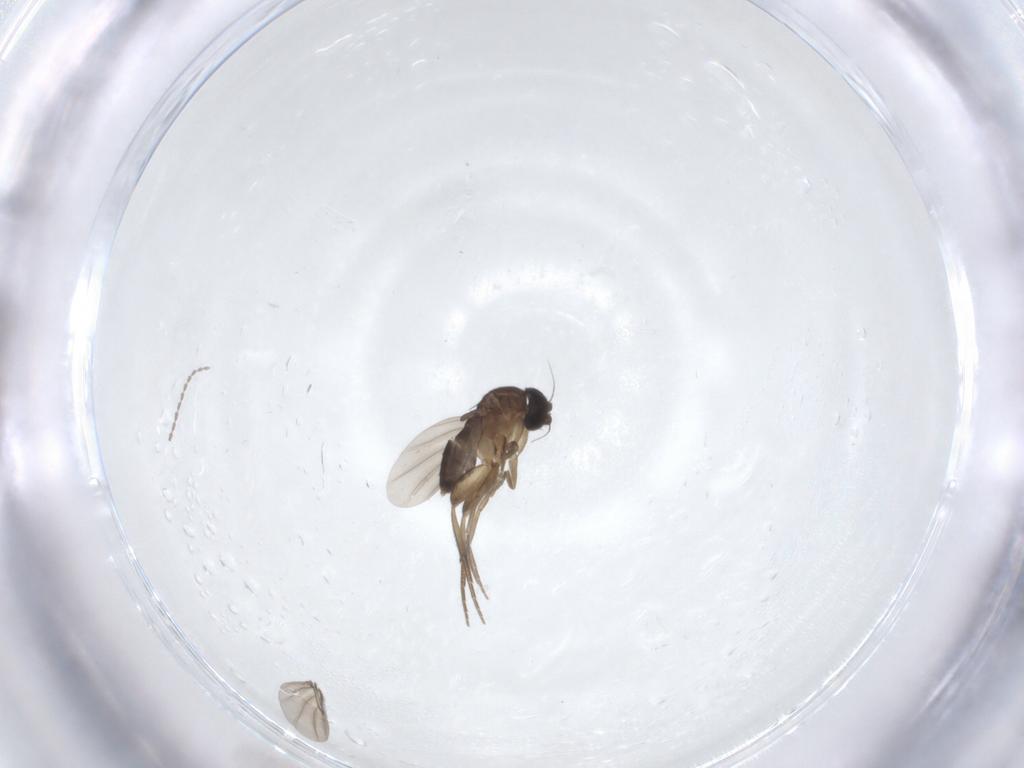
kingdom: Animalia
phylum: Arthropoda
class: Insecta
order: Diptera
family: Phoridae
